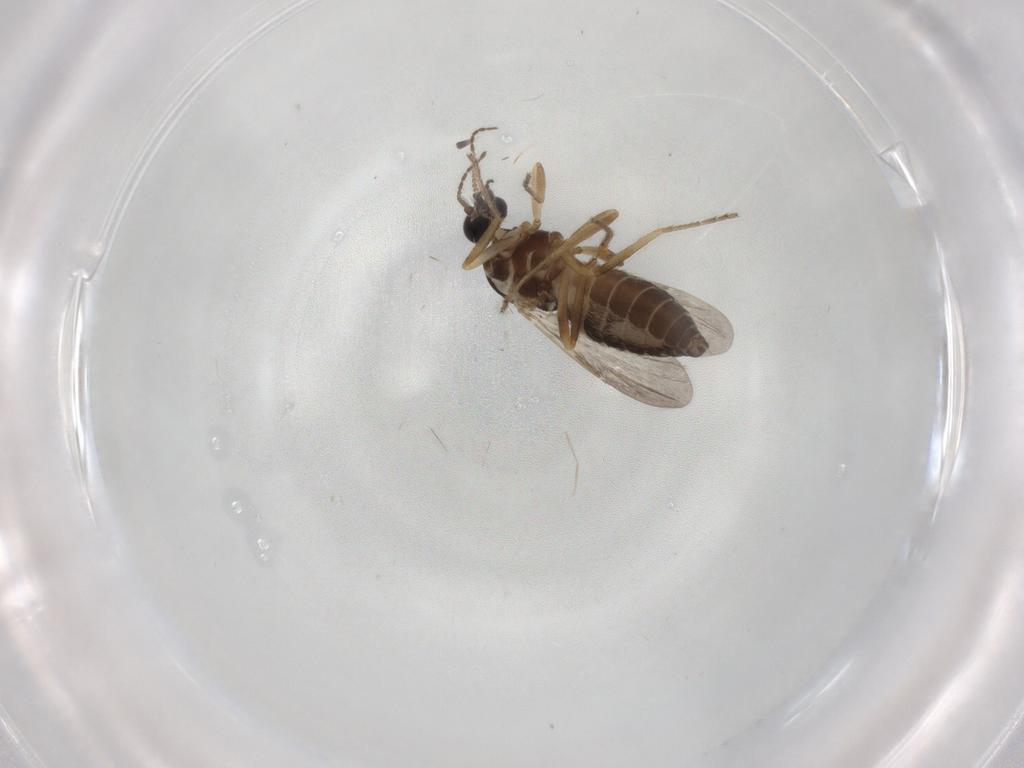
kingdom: Animalia
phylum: Arthropoda
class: Insecta
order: Diptera
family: Ceratopogonidae
